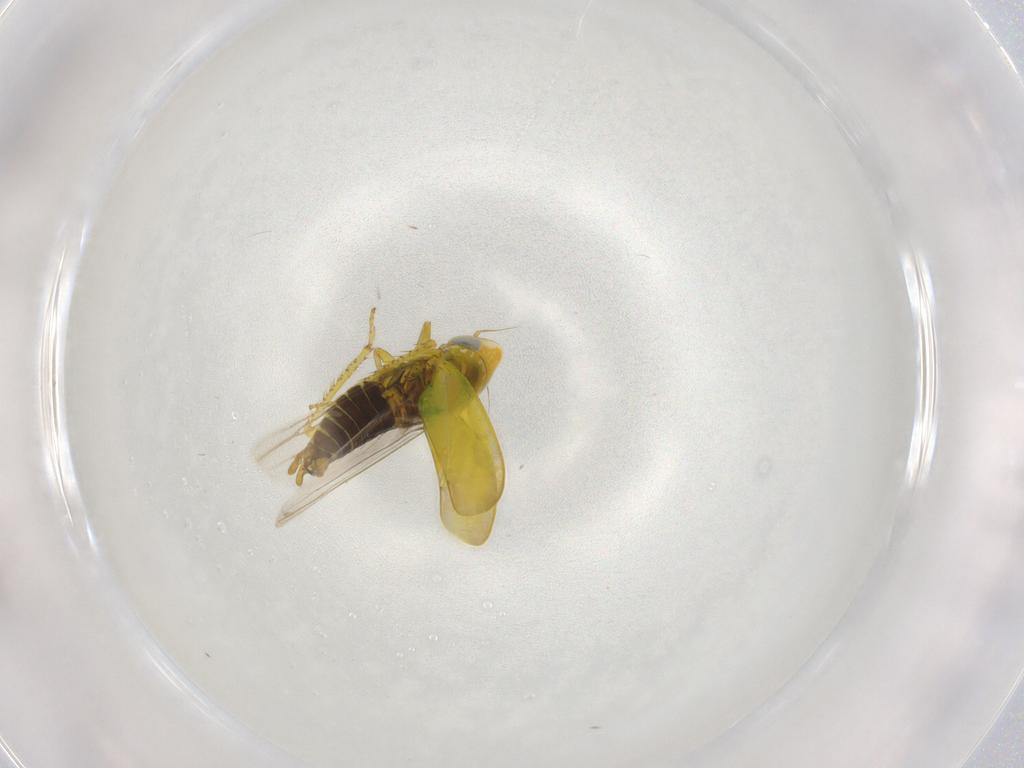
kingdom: Animalia
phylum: Arthropoda
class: Insecta
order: Hemiptera
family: Cicadellidae
